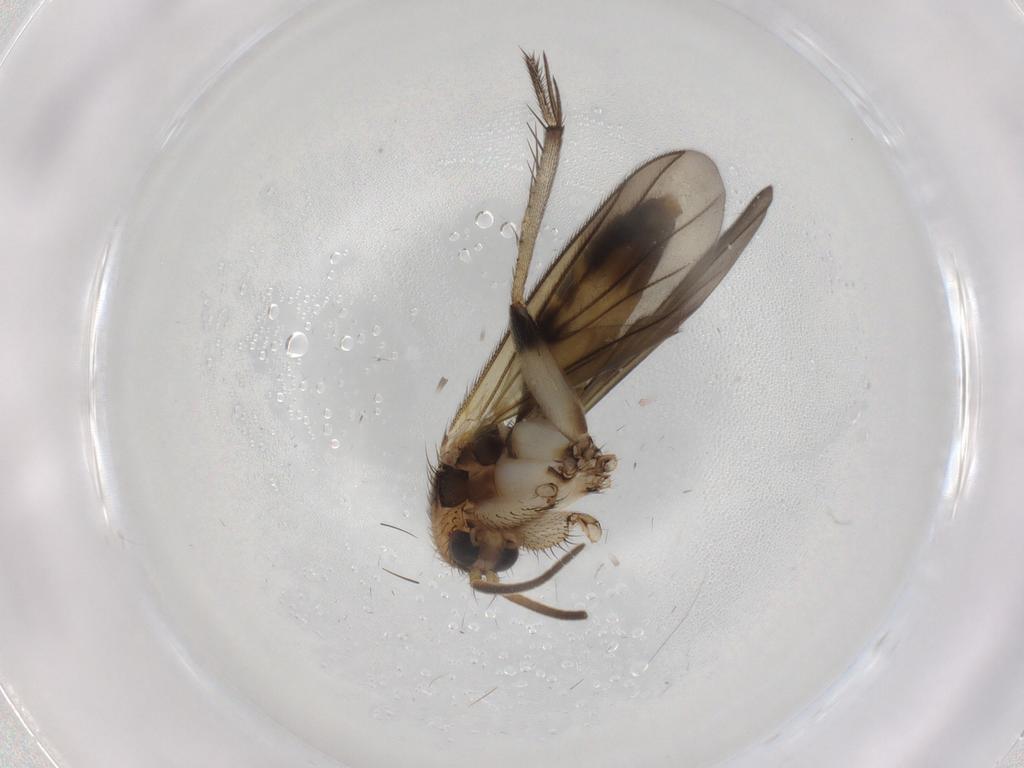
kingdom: Animalia
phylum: Arthropoda
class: Insecta
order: Diptera
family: Mycetophilidae
